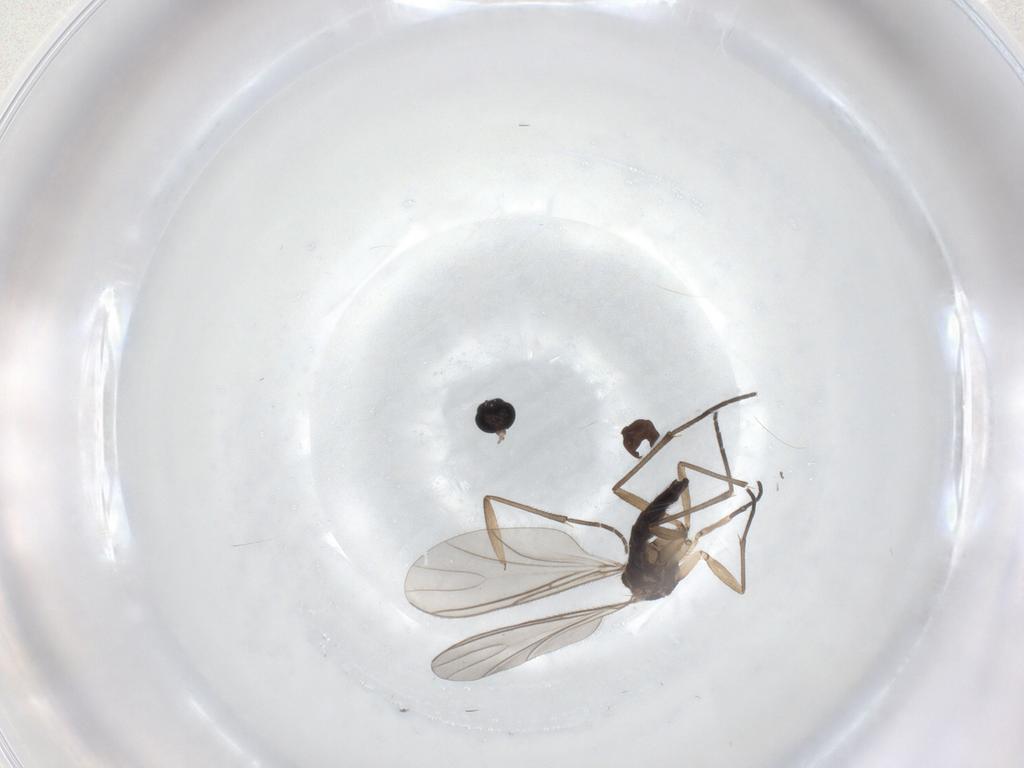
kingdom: Animalia
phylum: Arthropoda
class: Insecta
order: Diptera
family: Sciaridae
